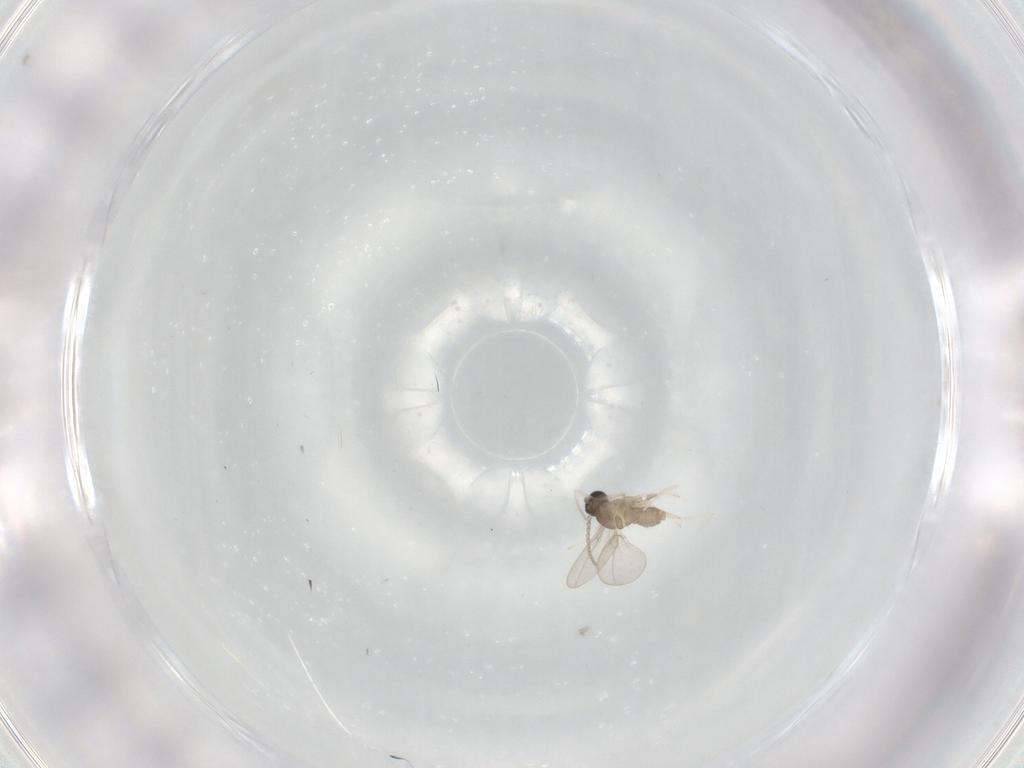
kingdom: Animalia
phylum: Arthropoda
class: Insecta
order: Diptera
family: Cecidomyiidae
